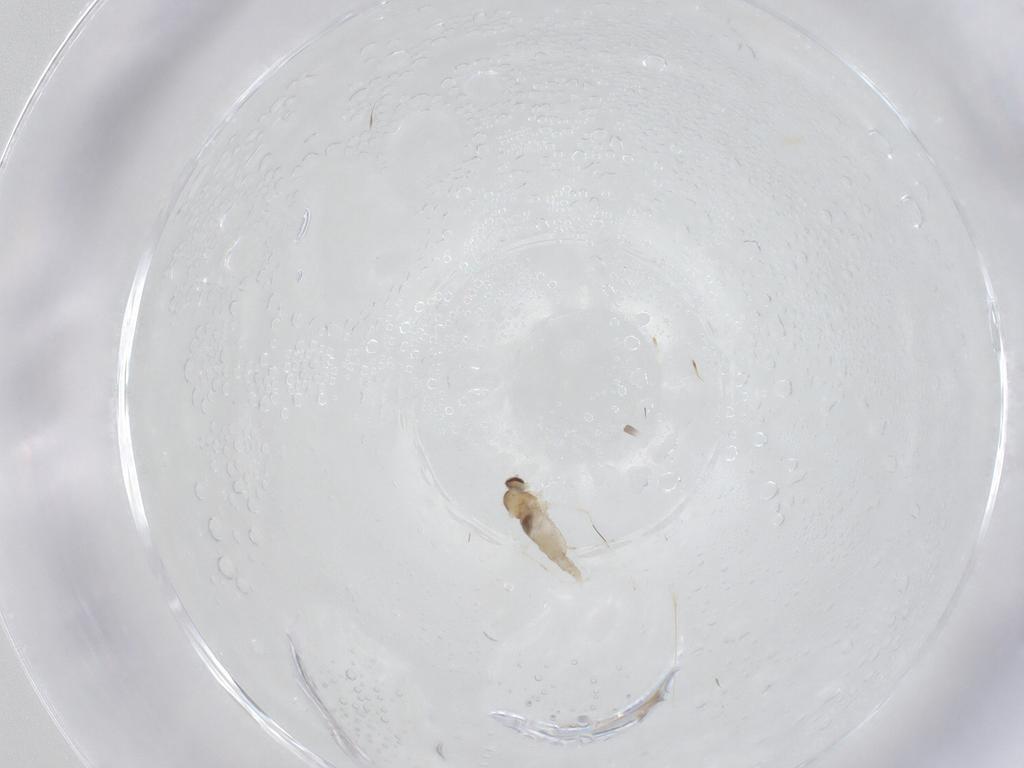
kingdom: Animalia
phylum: Arthropoda
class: Insecta
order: Diptera
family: Cecidomyiidae
